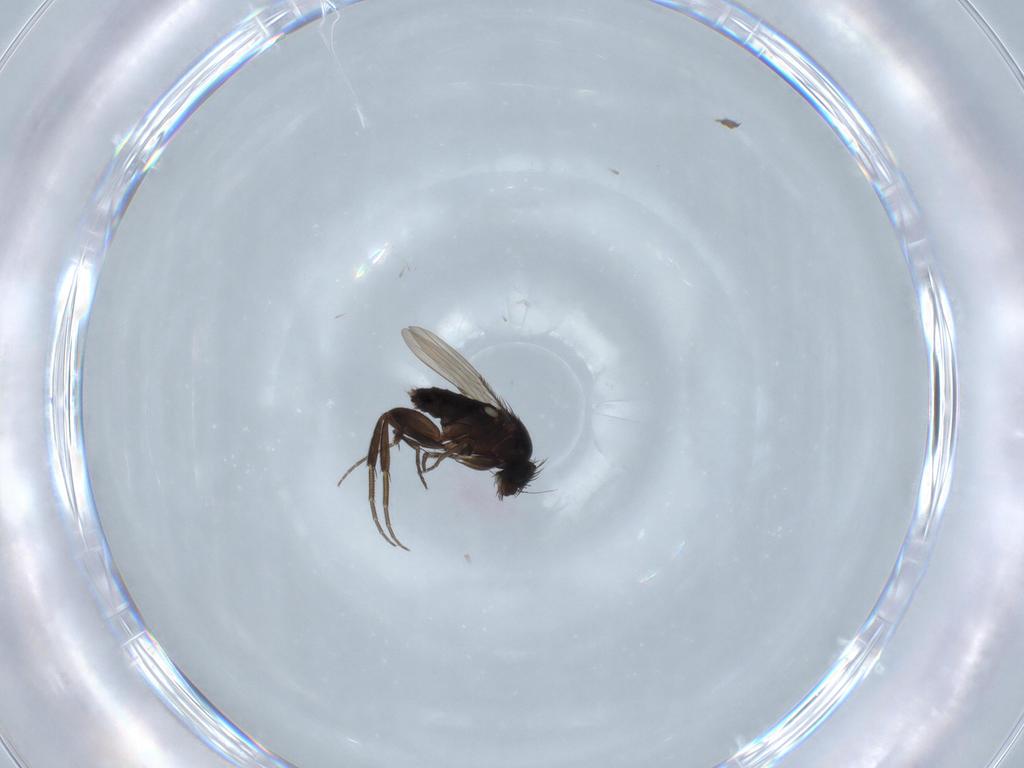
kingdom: Animalia
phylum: Arthropoda
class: Insecta
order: Diptera
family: Phoridae
